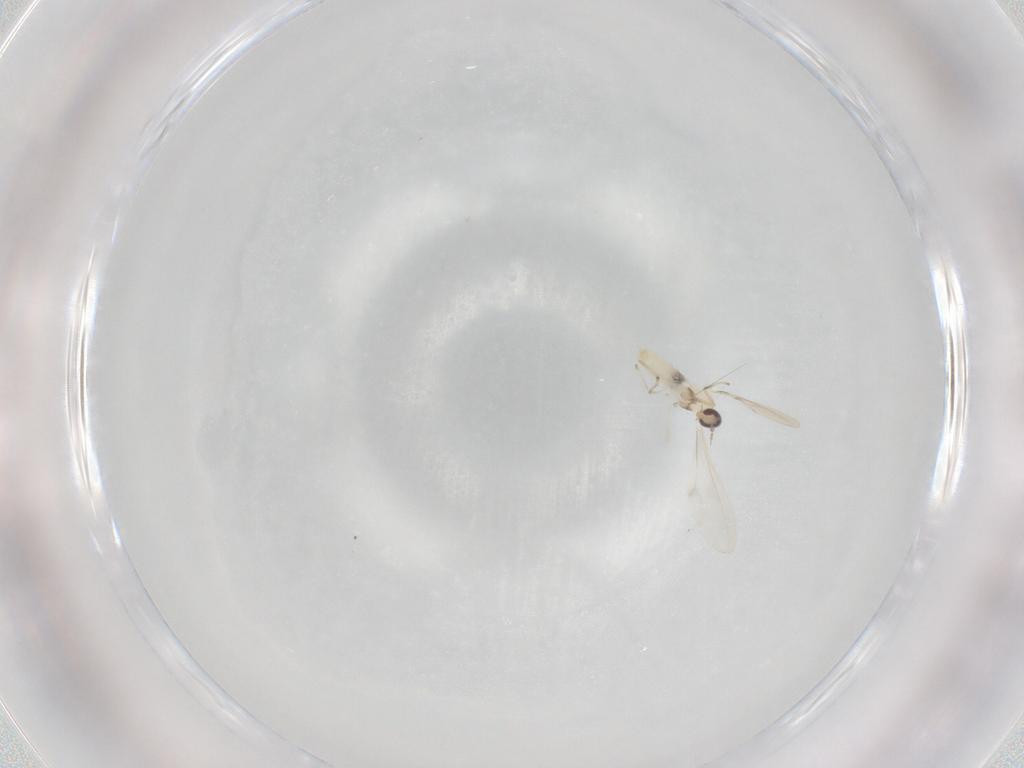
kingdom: Animalia
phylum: Arthropoda
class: Insecta
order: Diptera
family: Cecidomyiidae
